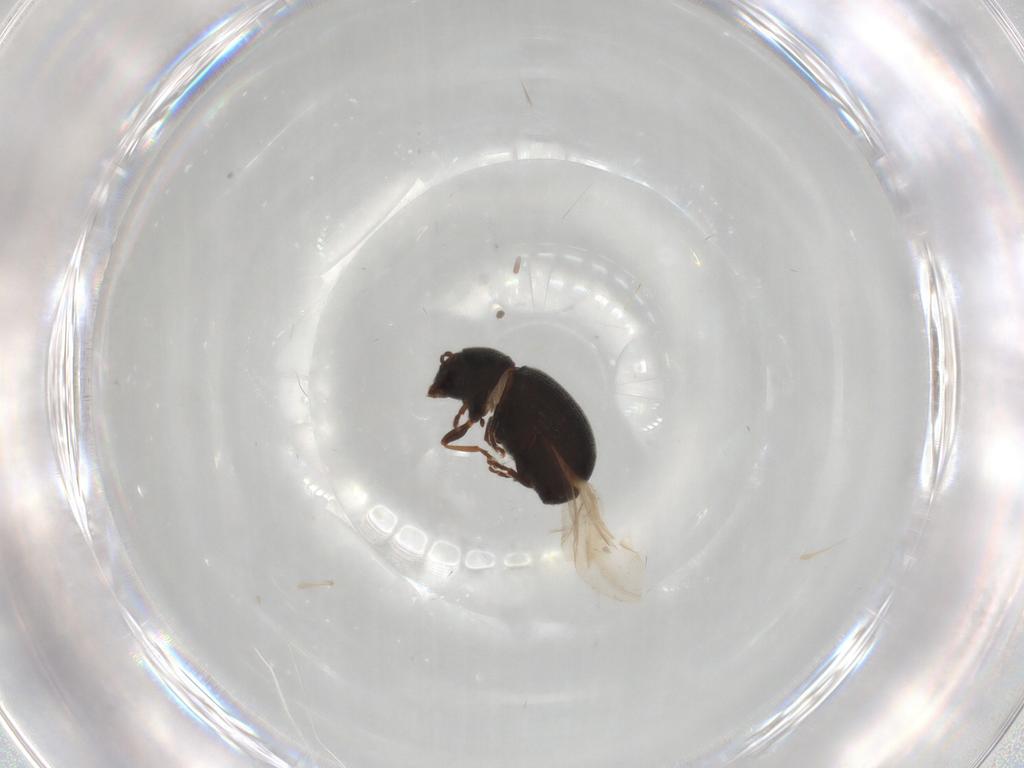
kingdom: Animalia
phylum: Arthropoda
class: Insecta
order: Coleoptera
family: Anthribidae
